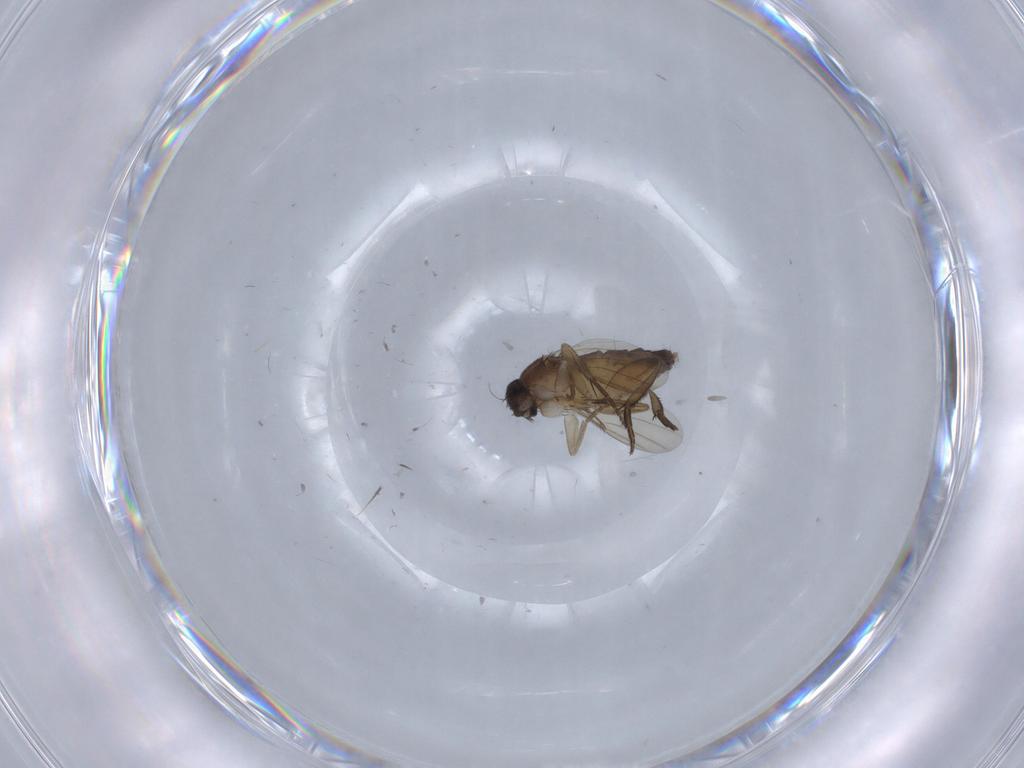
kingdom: Animalia
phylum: Arthropoda
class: Insecta
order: Diptera
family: Phoridae
